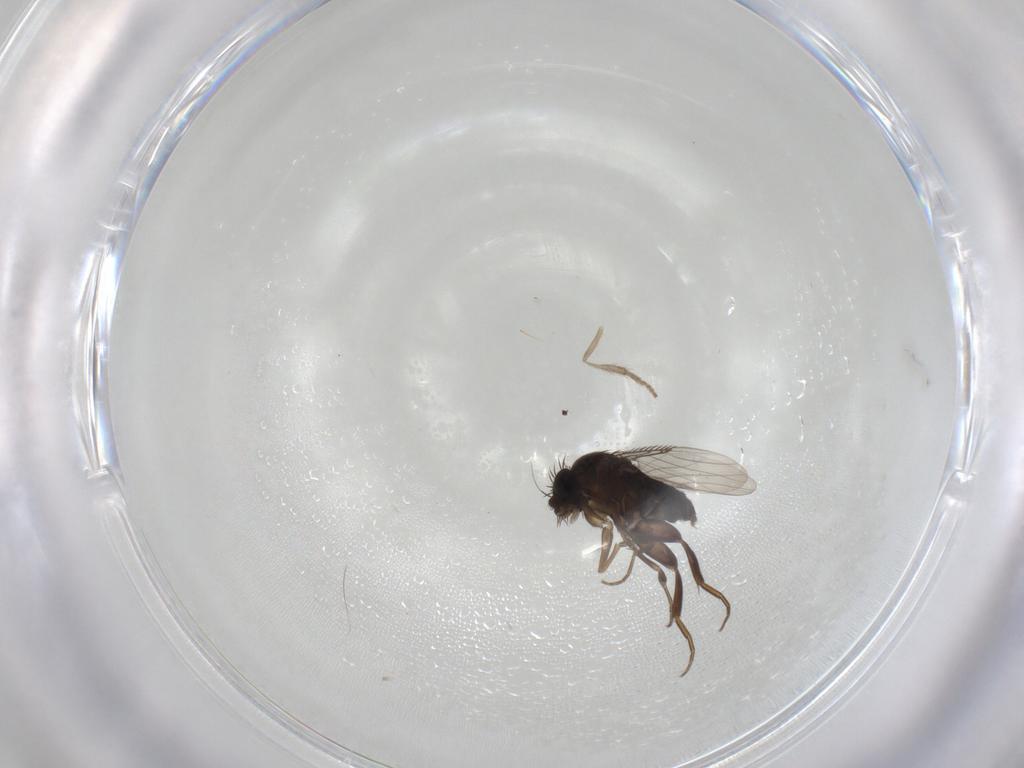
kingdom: Animalia
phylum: Arthropoda
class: Insecta
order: Diptera
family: Phoridae
